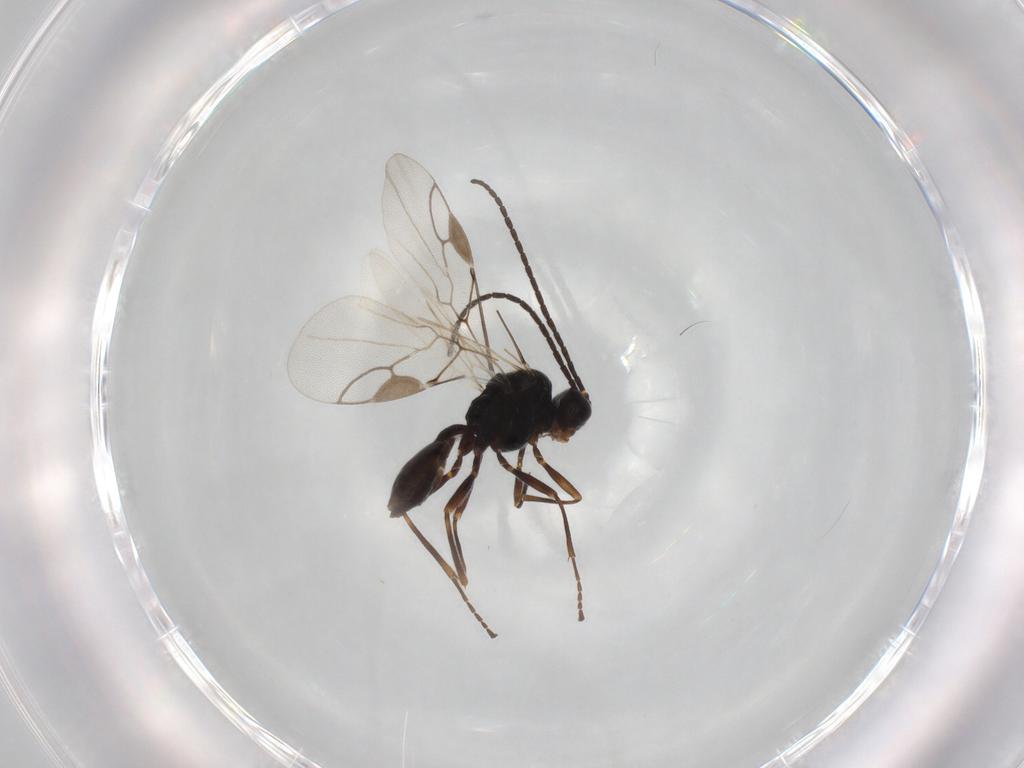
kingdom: Animalia
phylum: Arthropoda
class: Insecta
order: Hymenoptera
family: Braconidae
